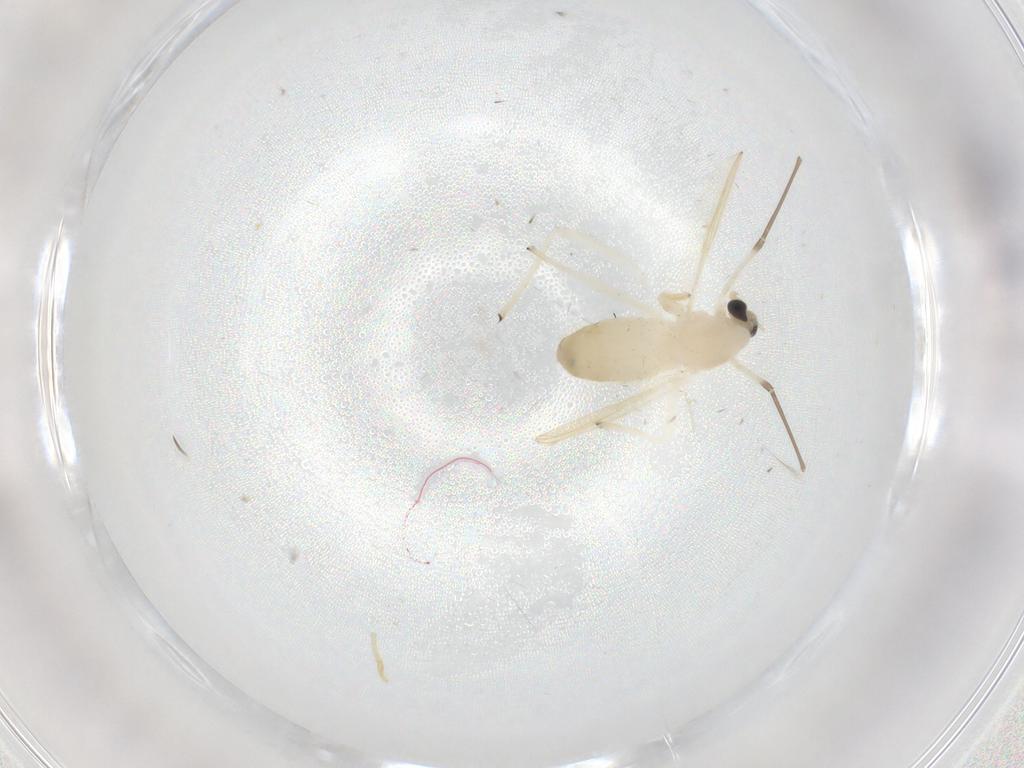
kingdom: Animalia
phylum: Arthropoda
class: Insecta
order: Diptera
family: Chironomidae
